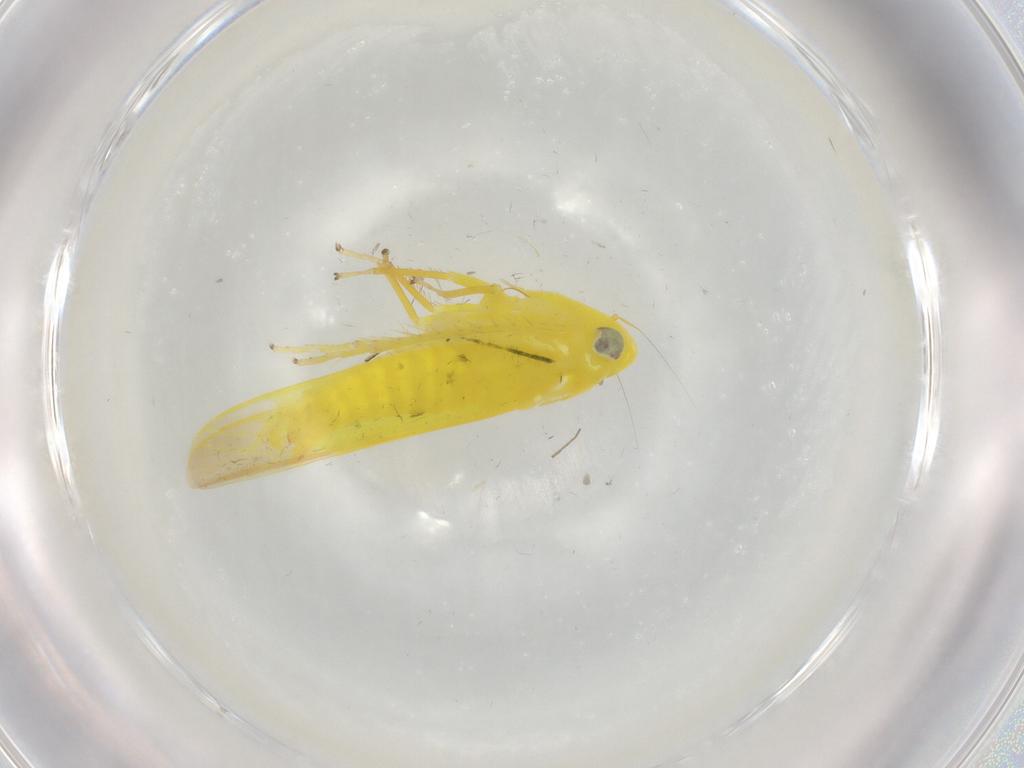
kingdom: Animalia
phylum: Arthropoda
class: Insecta
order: Hemiptera
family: Cicadellidae
